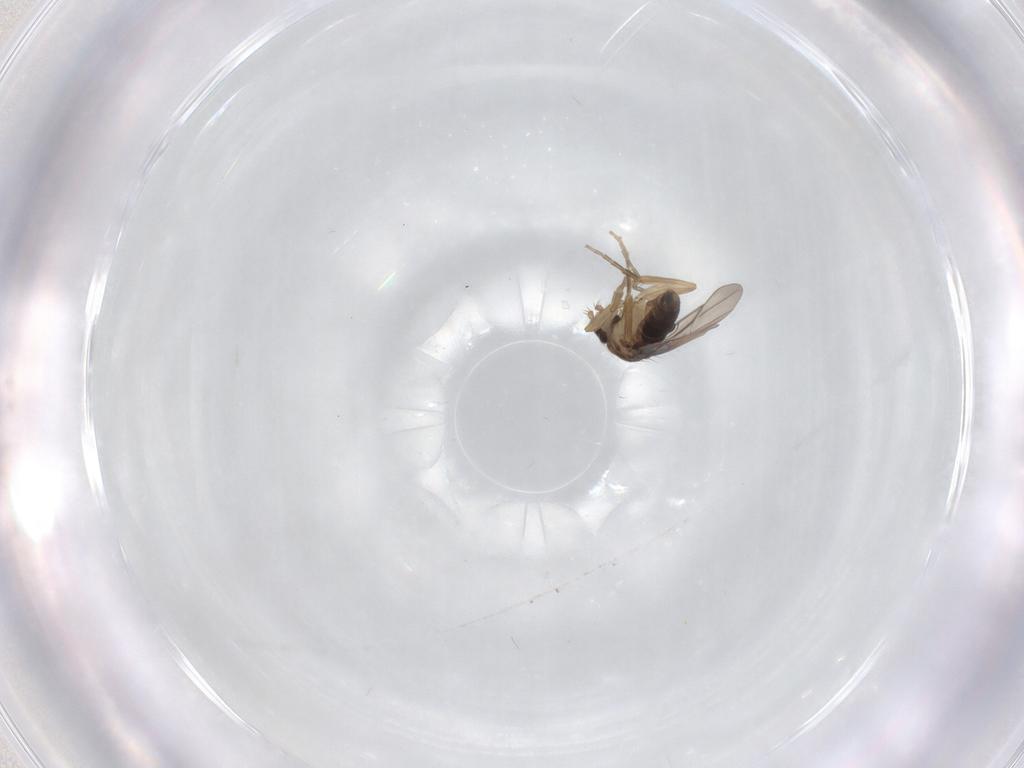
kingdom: Animalia
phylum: Arthropoda
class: Insecta
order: Diptera
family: Phoridae
